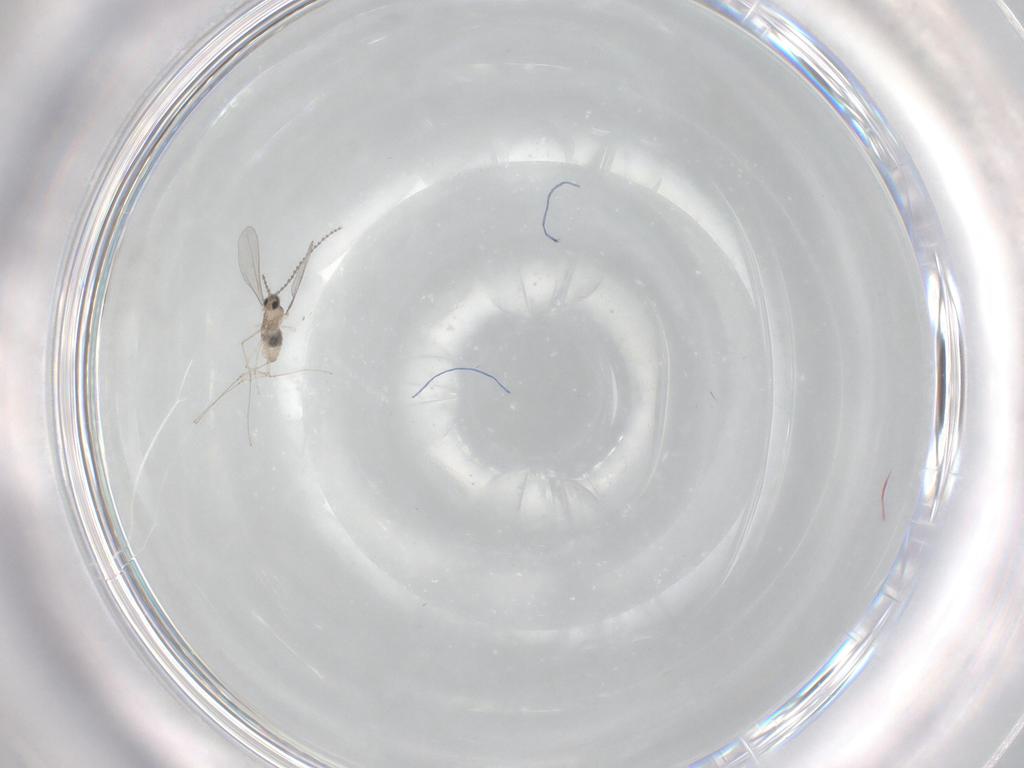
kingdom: Animalia
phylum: Arthropoda
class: Insecta
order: Diptera
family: Cecidomyiidae
